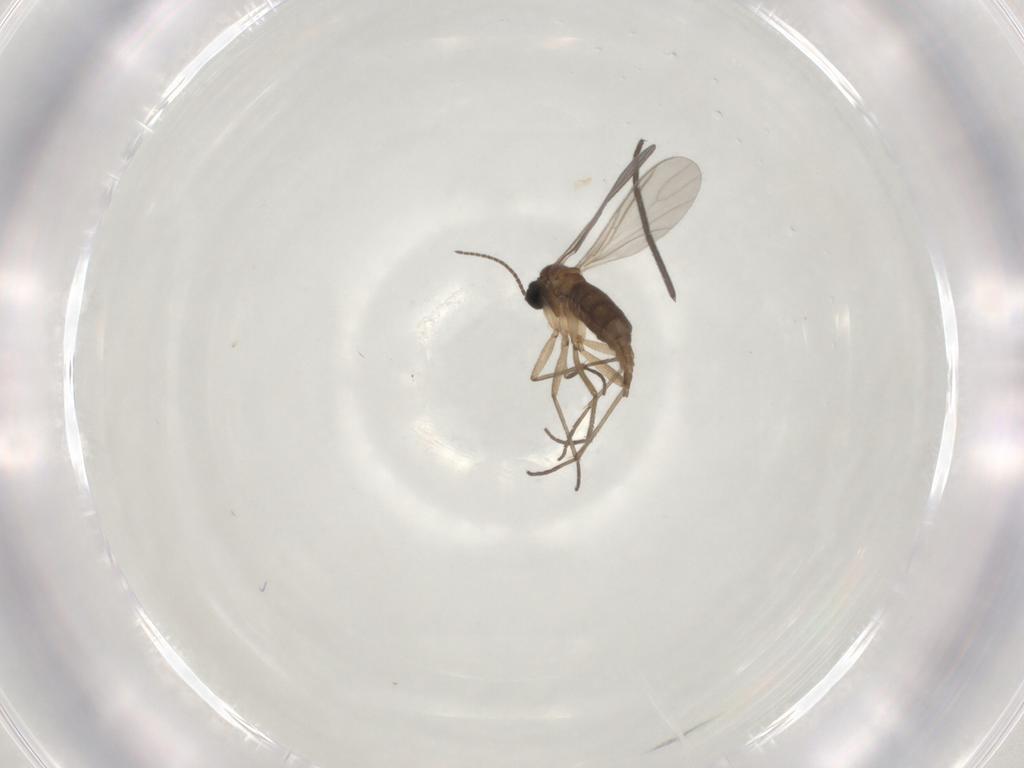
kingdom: Animalia
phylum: Arthropoda
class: Insecta
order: Diptera
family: Sciaridae
